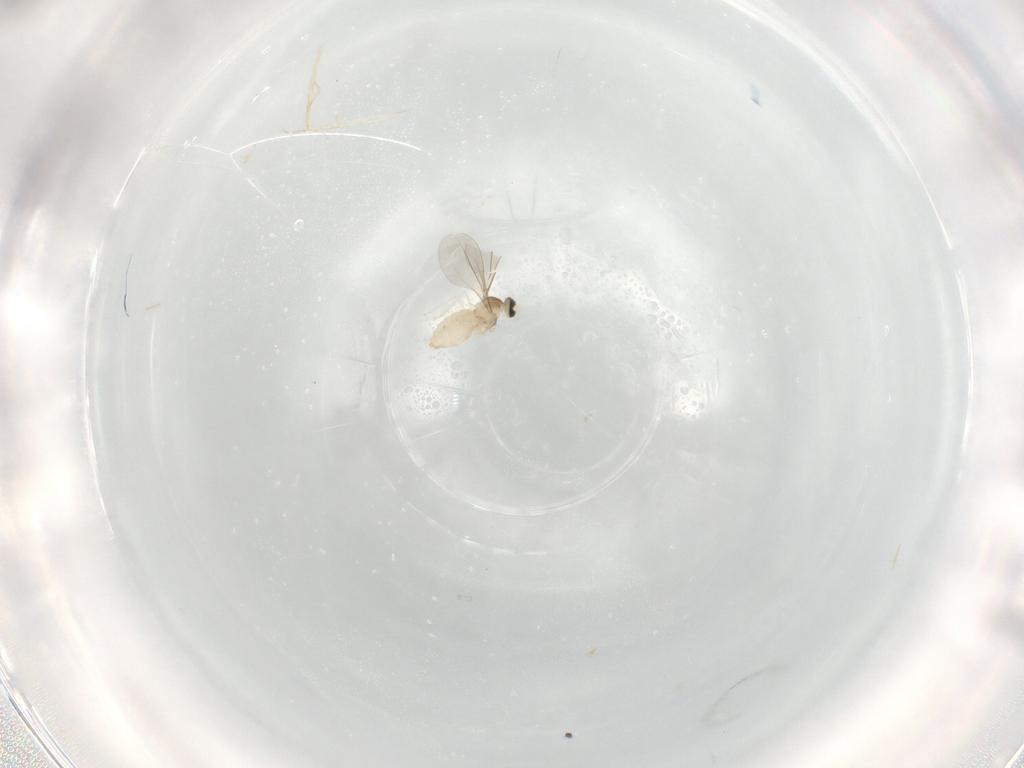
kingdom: Animalia
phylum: Arthropoda
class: Insecta
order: Diptera
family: Cecidomyiidae
